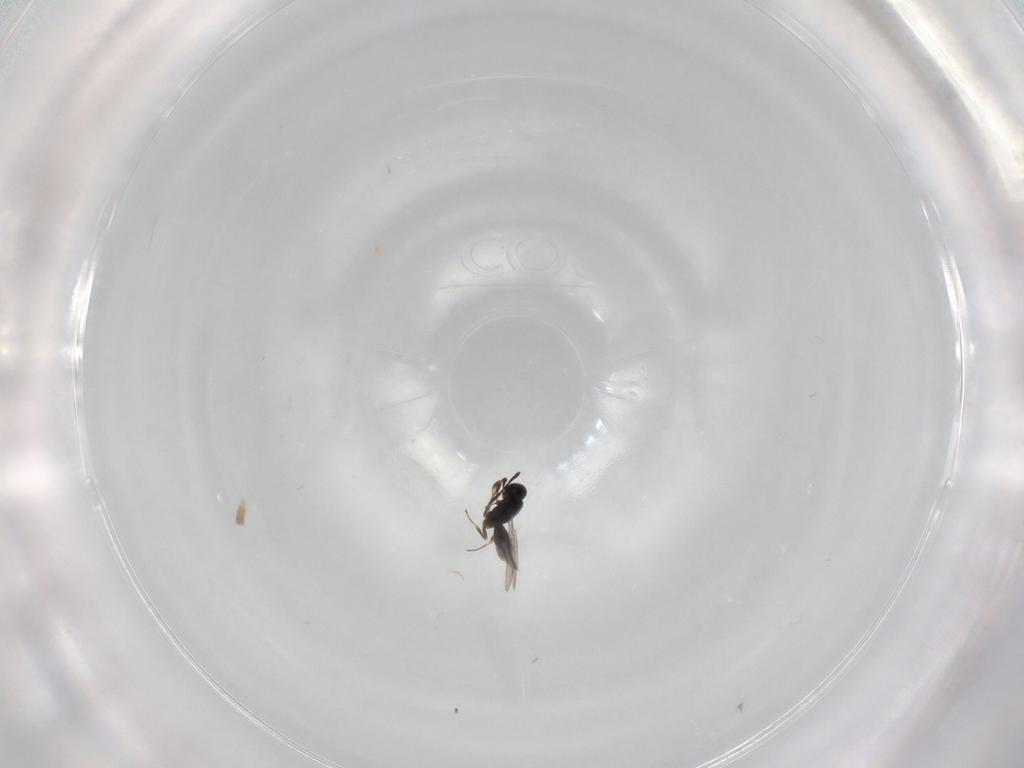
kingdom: Animalia
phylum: Arthropoda
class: Insecta
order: Hymenoptera
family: Scelionidae
